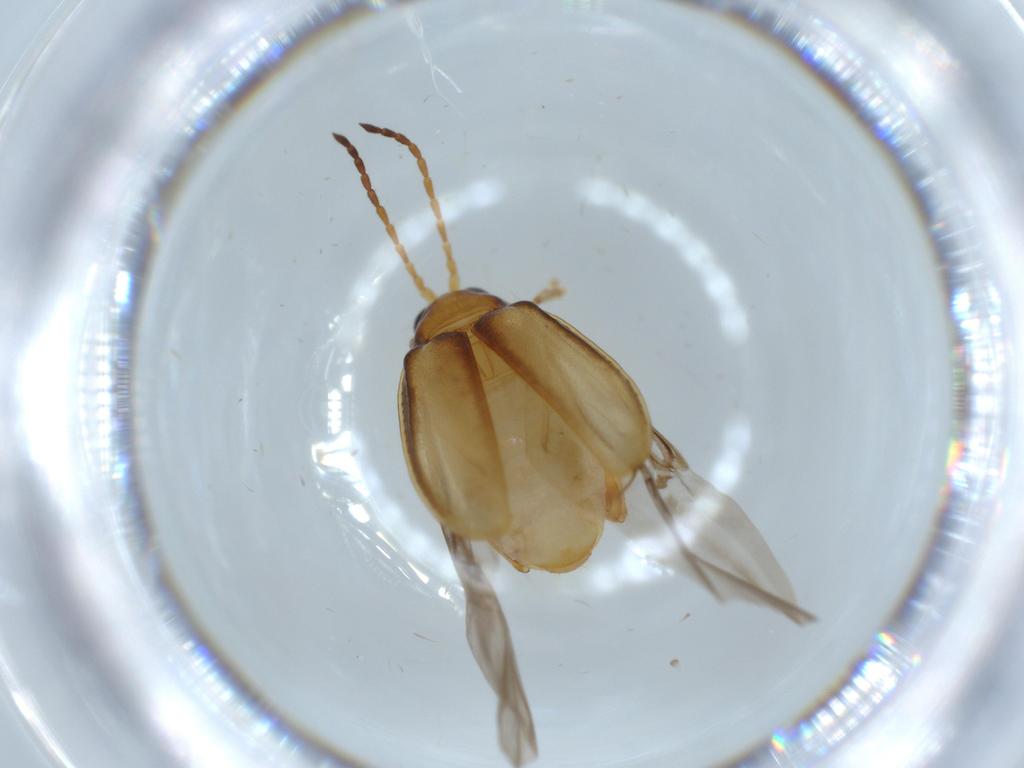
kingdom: Animalia
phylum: Arthropoda
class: Insecta
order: Coleoptera
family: Chrysomelidae
